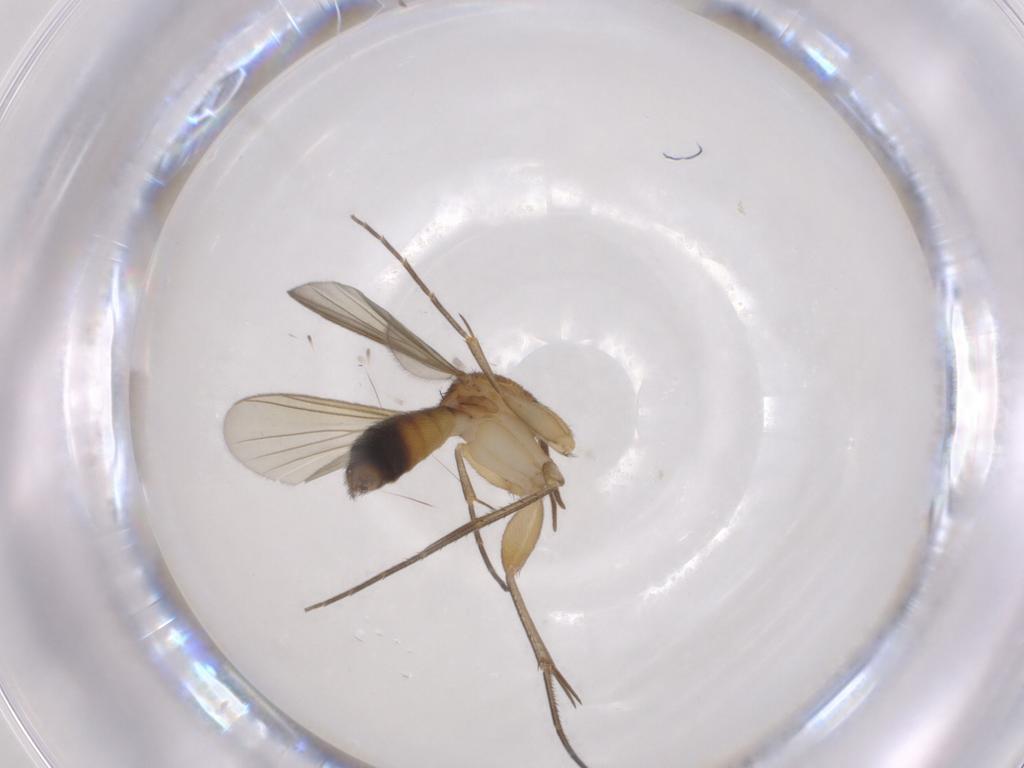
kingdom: Animalia
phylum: Arthropoda
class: Insecta
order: Diptera
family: Mycetophilidae
